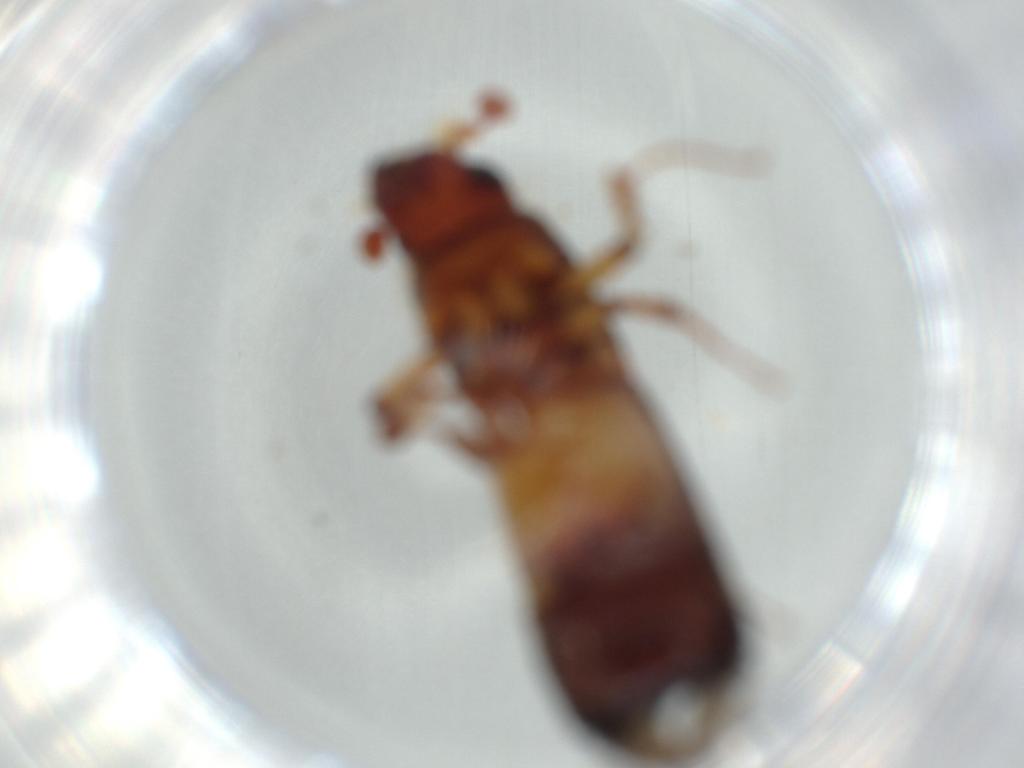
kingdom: Animalia
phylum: Arthropoda
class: Insecta
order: Coleoptera
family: Curculionidae
